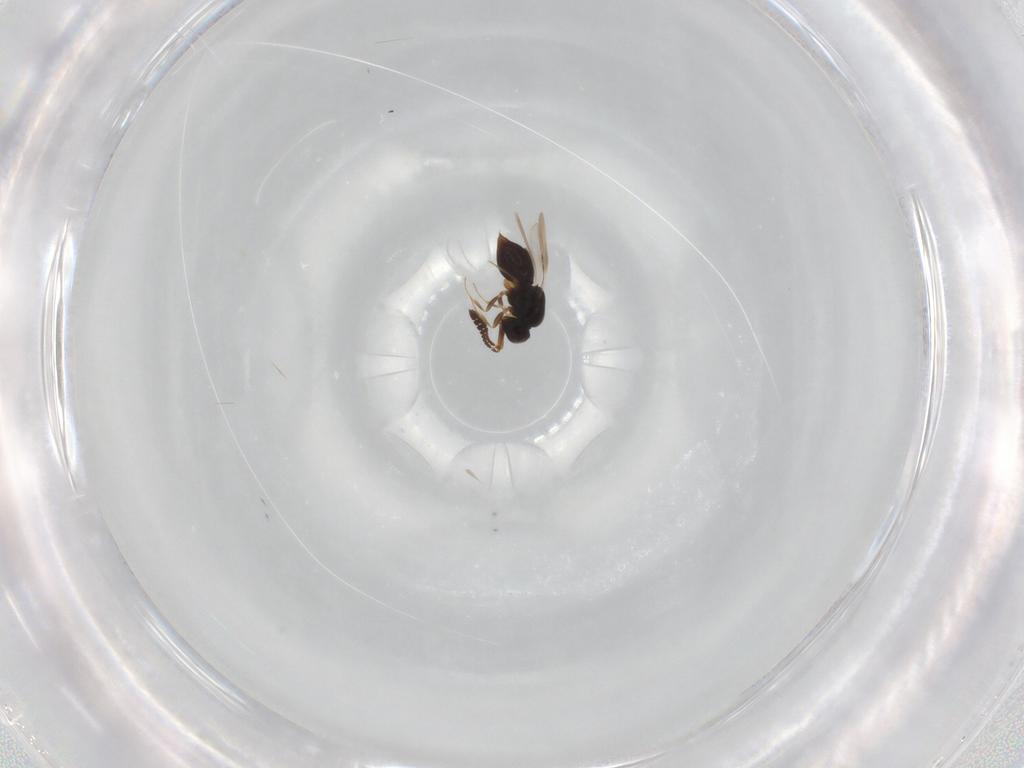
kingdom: Animalia
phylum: Arthropoda
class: Insecta
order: Hymenoptera
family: Ceraphronidae
